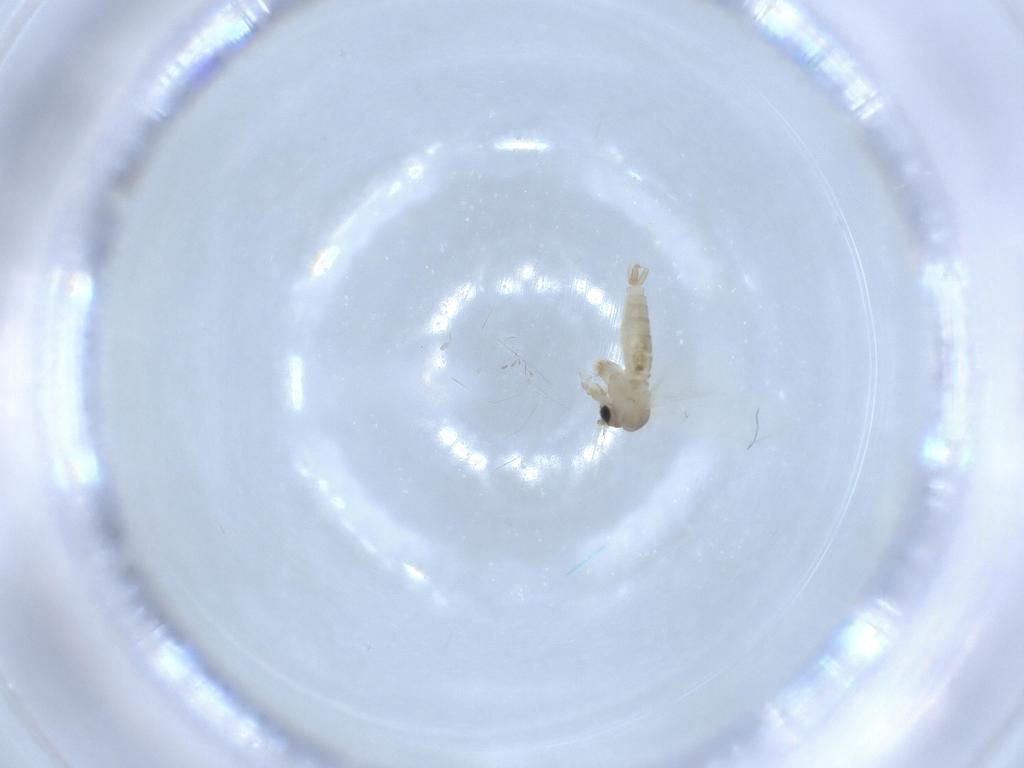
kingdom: Animalia
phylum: Arthropoda
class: Insecta
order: Diptera
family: Psychodidae
